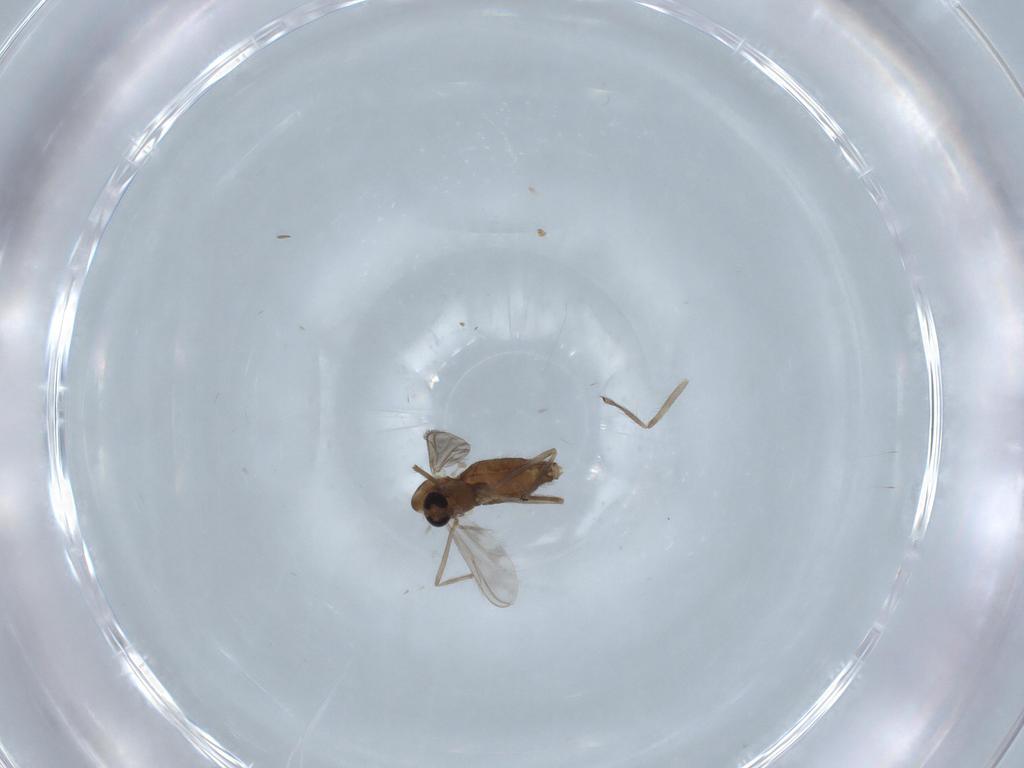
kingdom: Animalia
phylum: Arthropoda
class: Insecta
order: Diptera
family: Chironomidae
